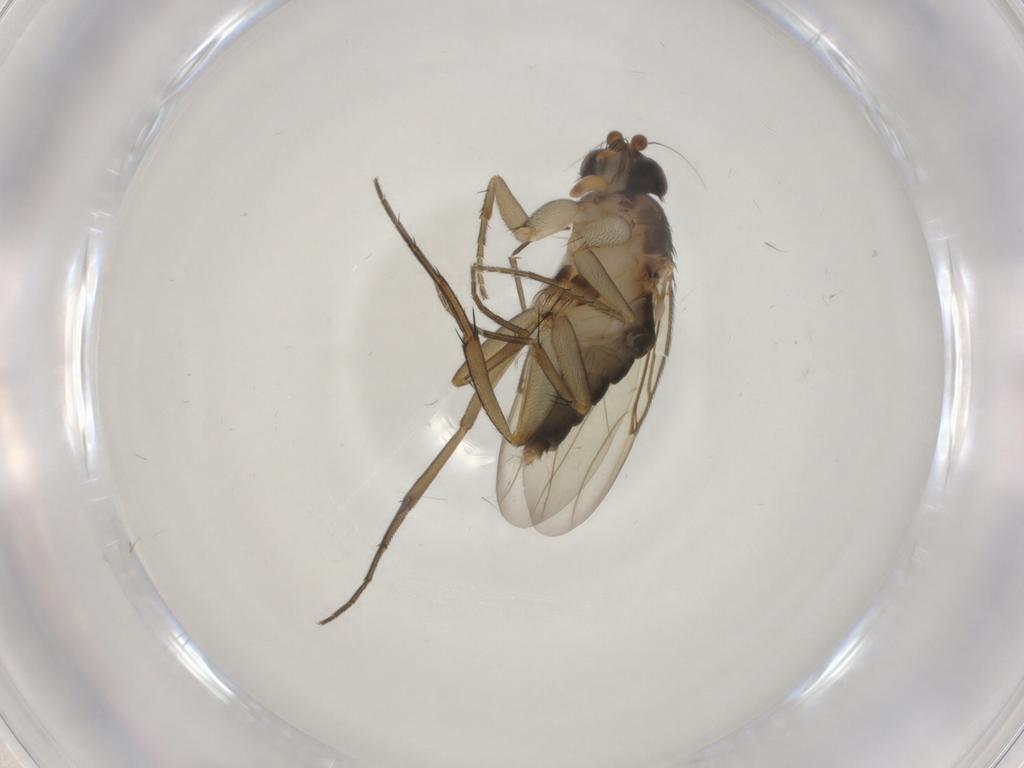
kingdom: Animalia
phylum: Arthropoda
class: Insecta
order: Diptera
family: Phoridae
